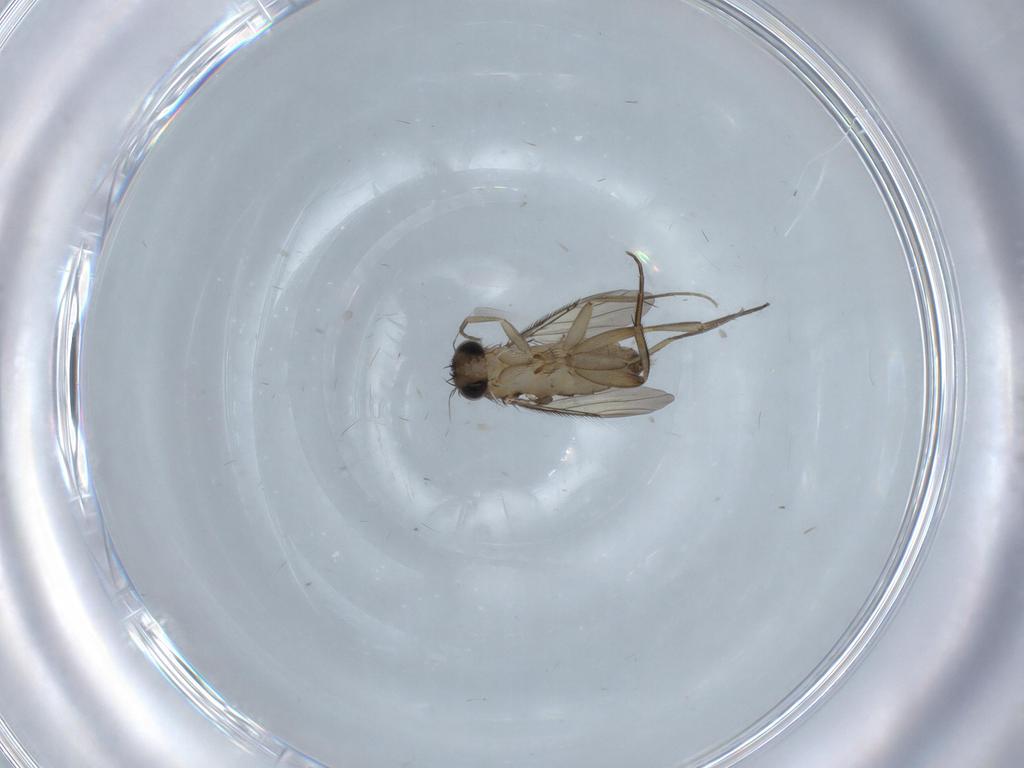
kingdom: Animalia
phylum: Arthropoda
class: Insecta
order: Diptera
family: Phoridae
